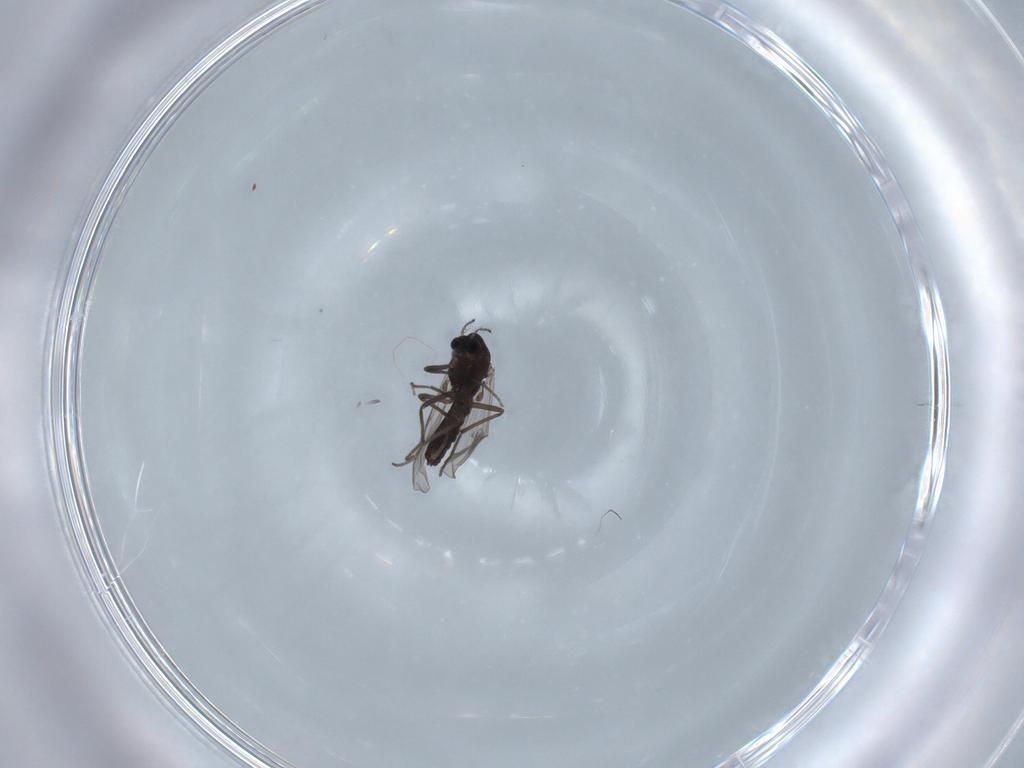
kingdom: Animalia
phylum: Arthropoda
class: Insecta
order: Diptera
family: Chironomidae
